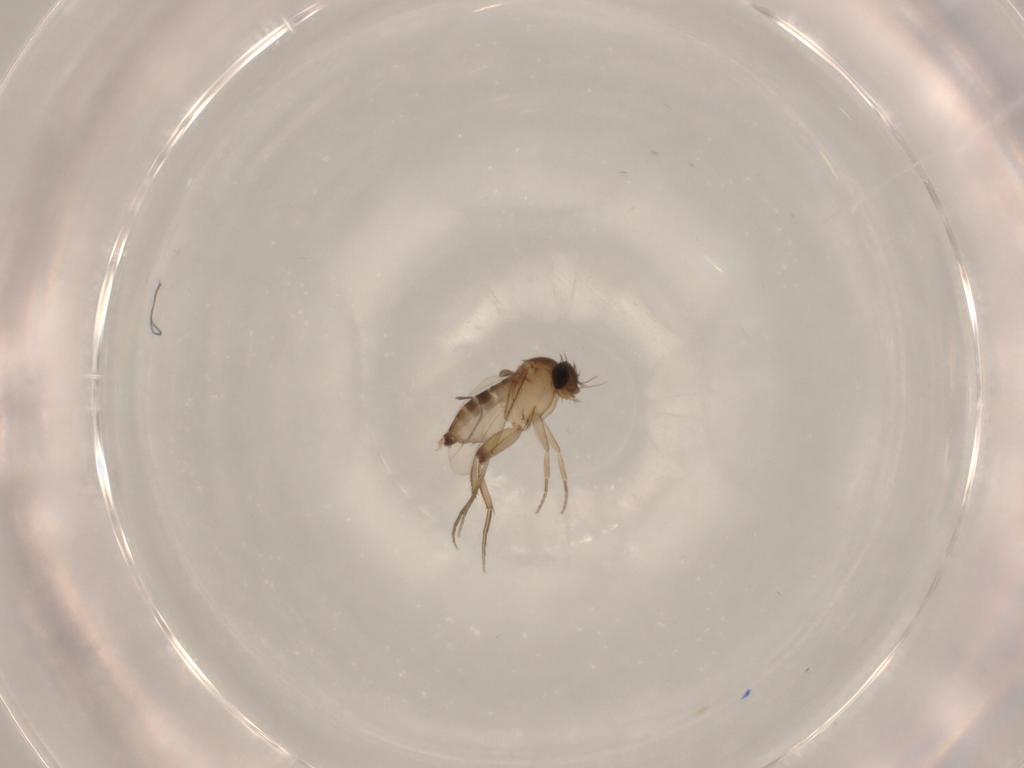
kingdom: Animalia
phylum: Arthropoda
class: Insecta
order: Diptera
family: Phoridae
